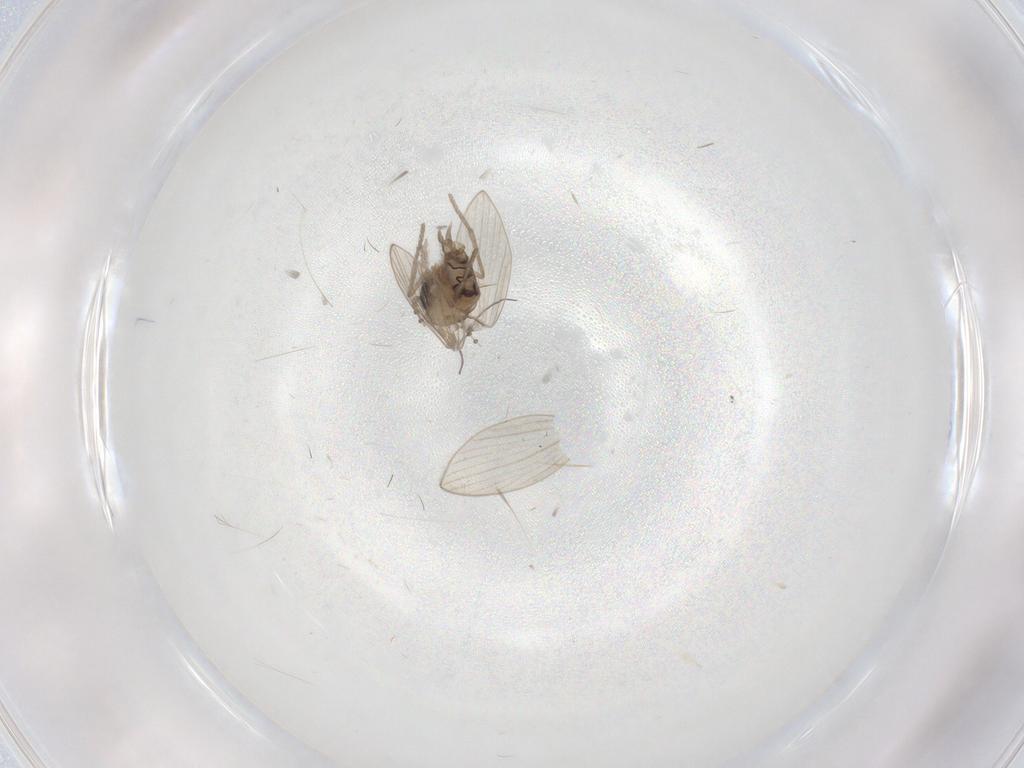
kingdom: Animalia
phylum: Arthropoda
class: Insecta
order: Diptera
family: Psychodidae
